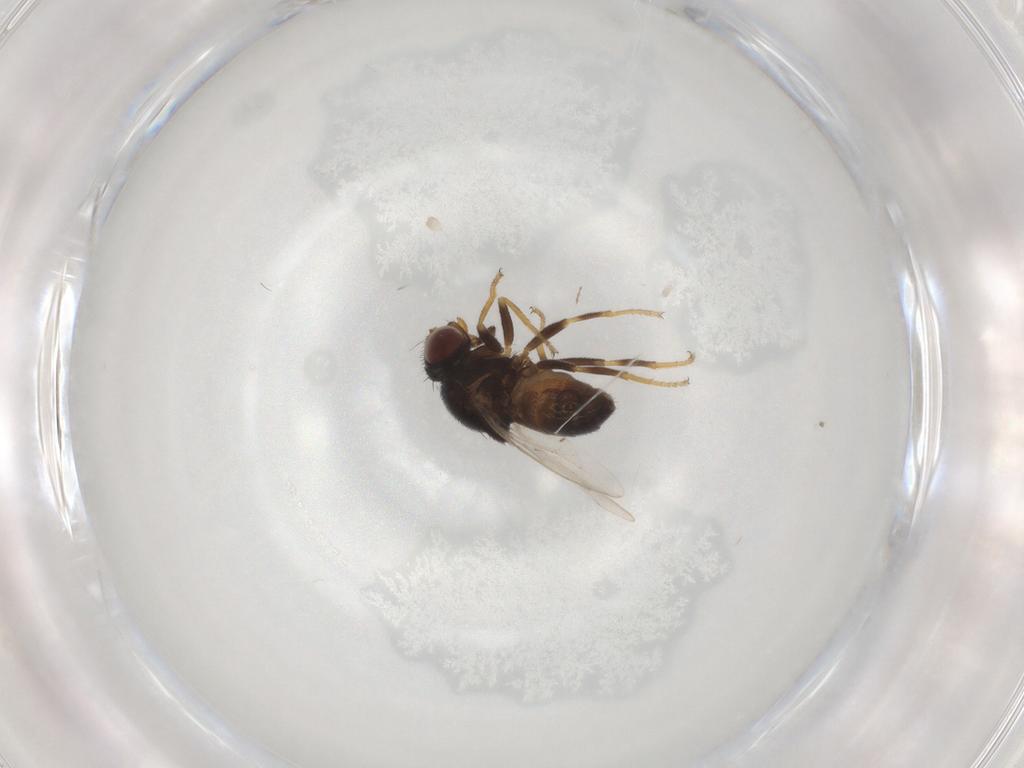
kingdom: Animalia
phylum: Arthropoda
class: Insecta
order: Diptera
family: Chloropidae
